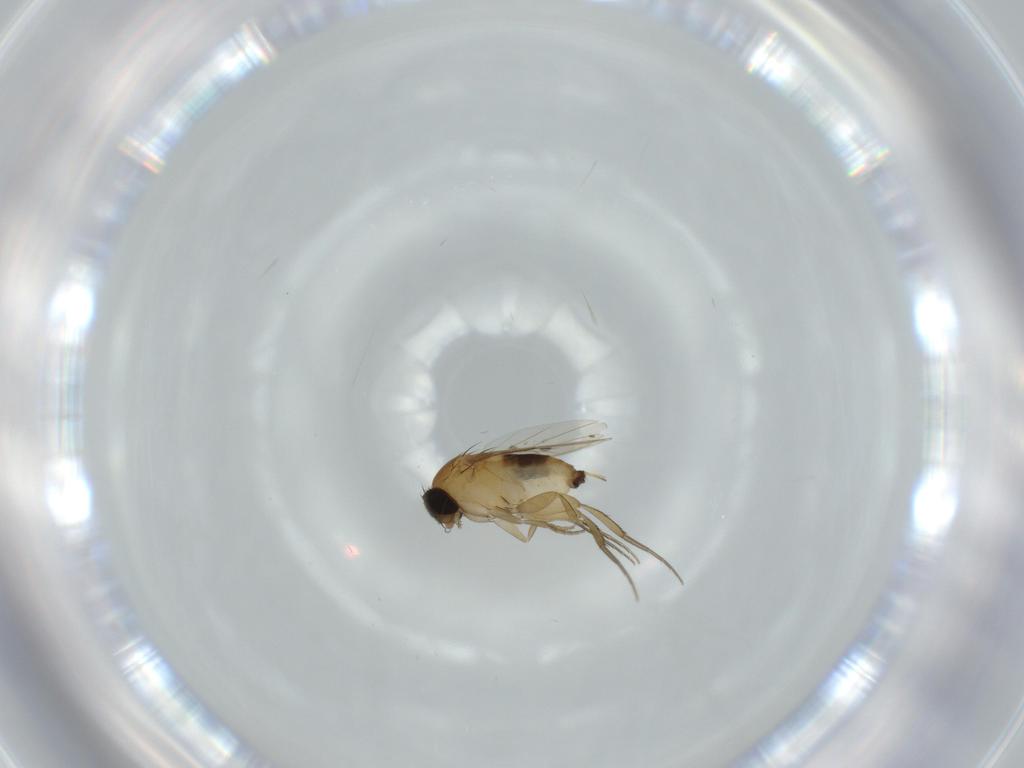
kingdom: Animalia
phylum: Arthropoda
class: Insecta
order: Diptera
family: Phoridae
